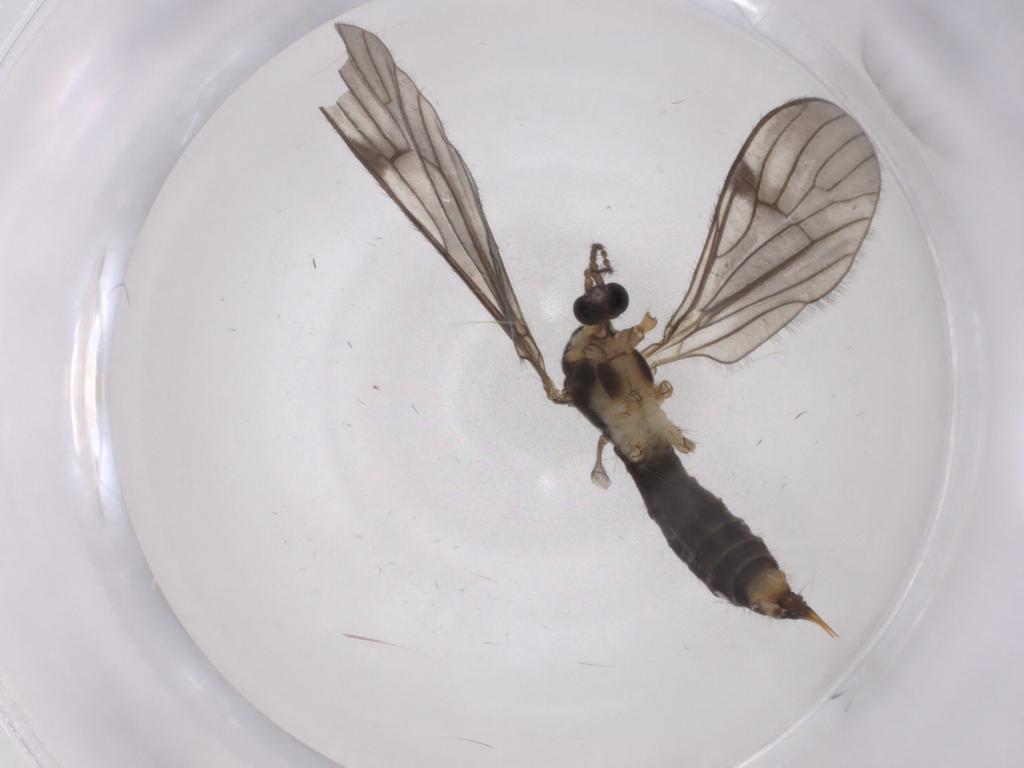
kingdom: Animalia
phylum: Arthropoda
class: Insecta
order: Diptera
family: Limoniidae
